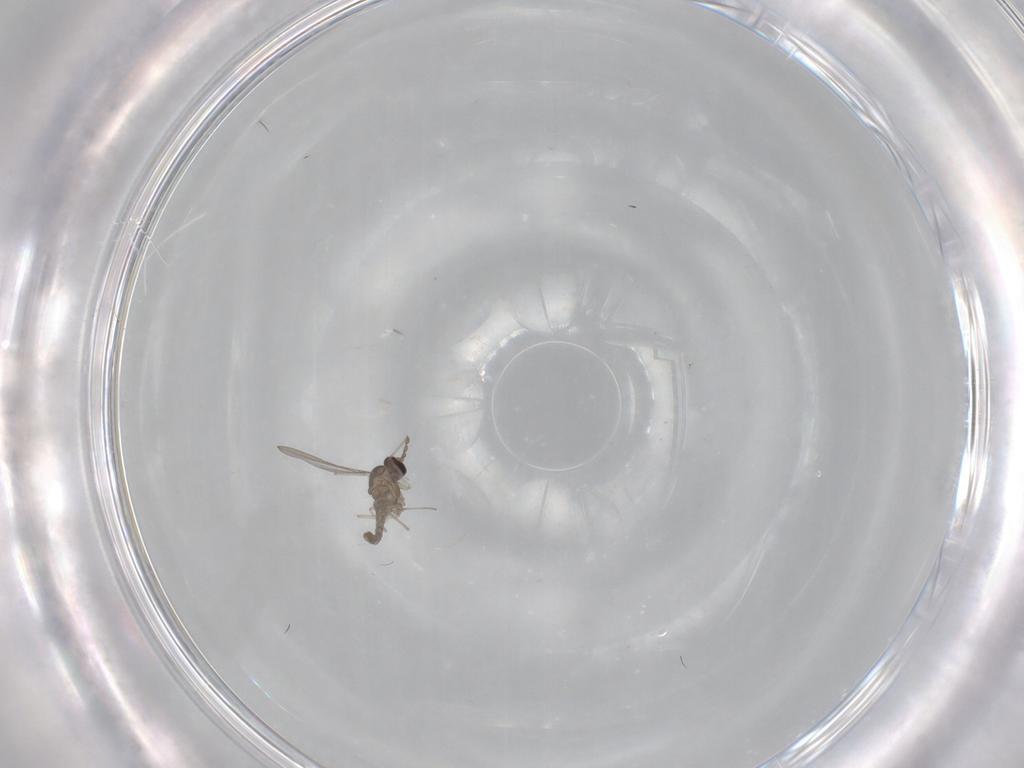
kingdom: Animalia
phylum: Arthropoda
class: Insecta
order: Diptera
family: Cecidomyiidae
